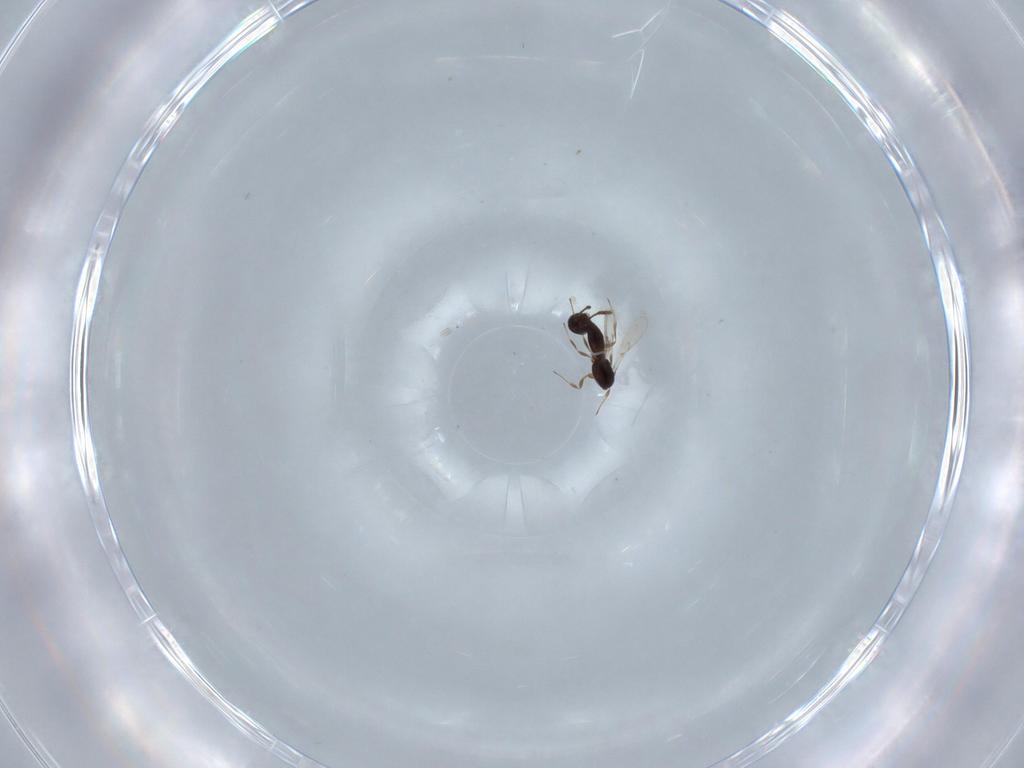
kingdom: Animalia
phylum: Arthropoda
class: Insecta
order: Hymenoptera
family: Scelionidae
